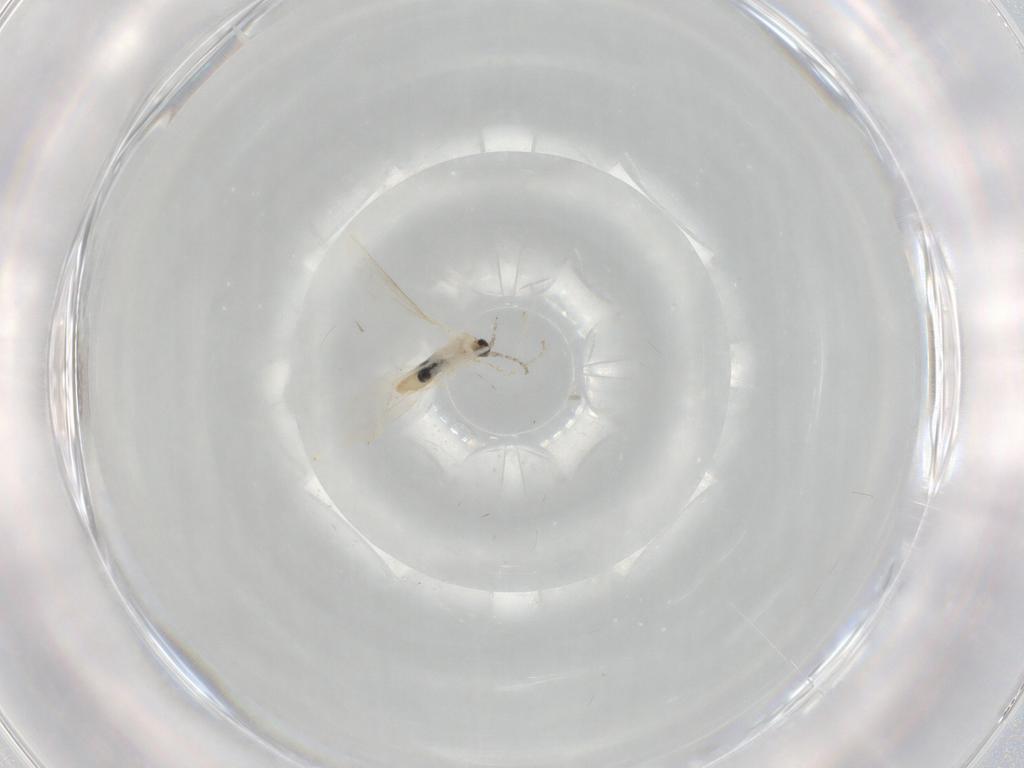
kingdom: Animalia
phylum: Arthropoda
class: Insecta
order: Diptera
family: Cecidomyiidae
